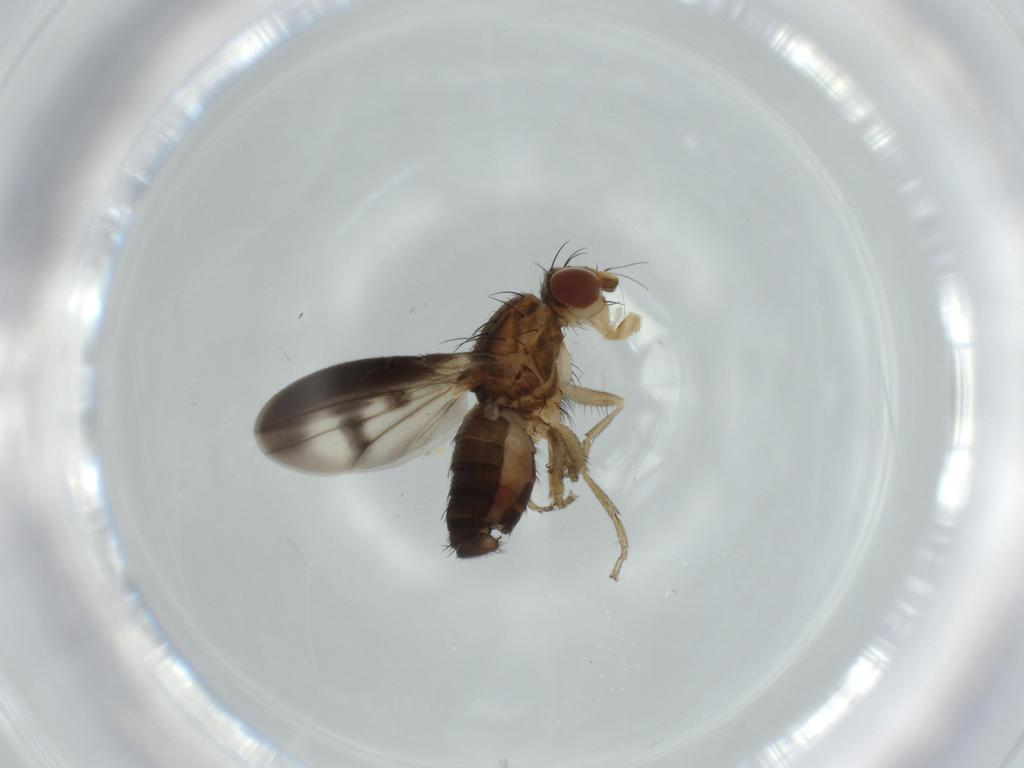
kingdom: Animalia
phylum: Arthropoda
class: Insecta
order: Diptera
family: Heleomyzidae
